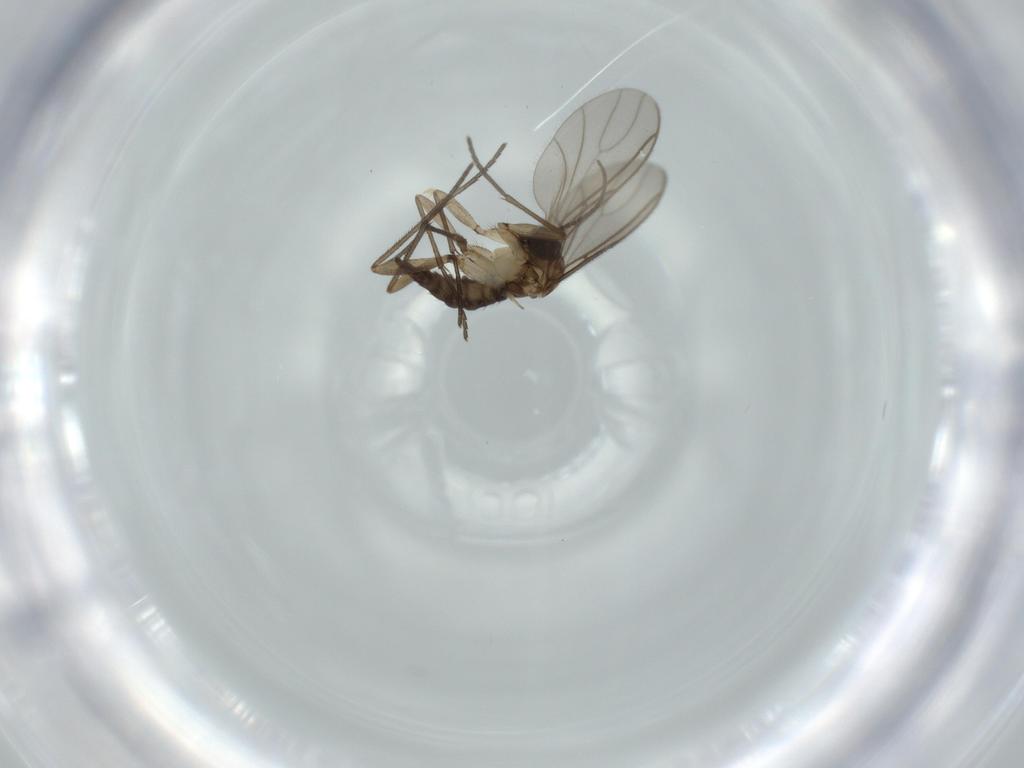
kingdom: Animalia
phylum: Arthropoda
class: Insecta
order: Diptera
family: Sciaridae
